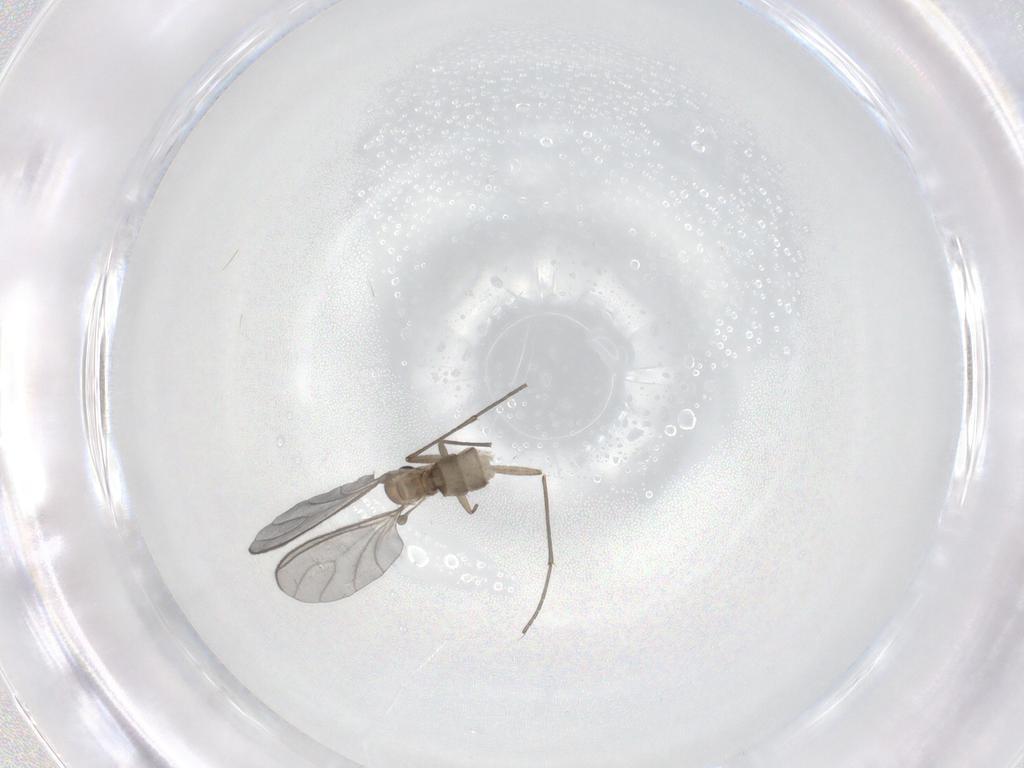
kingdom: Animalia
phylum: Arthropoda
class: Insecta
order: Diptera
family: Sciaridae
